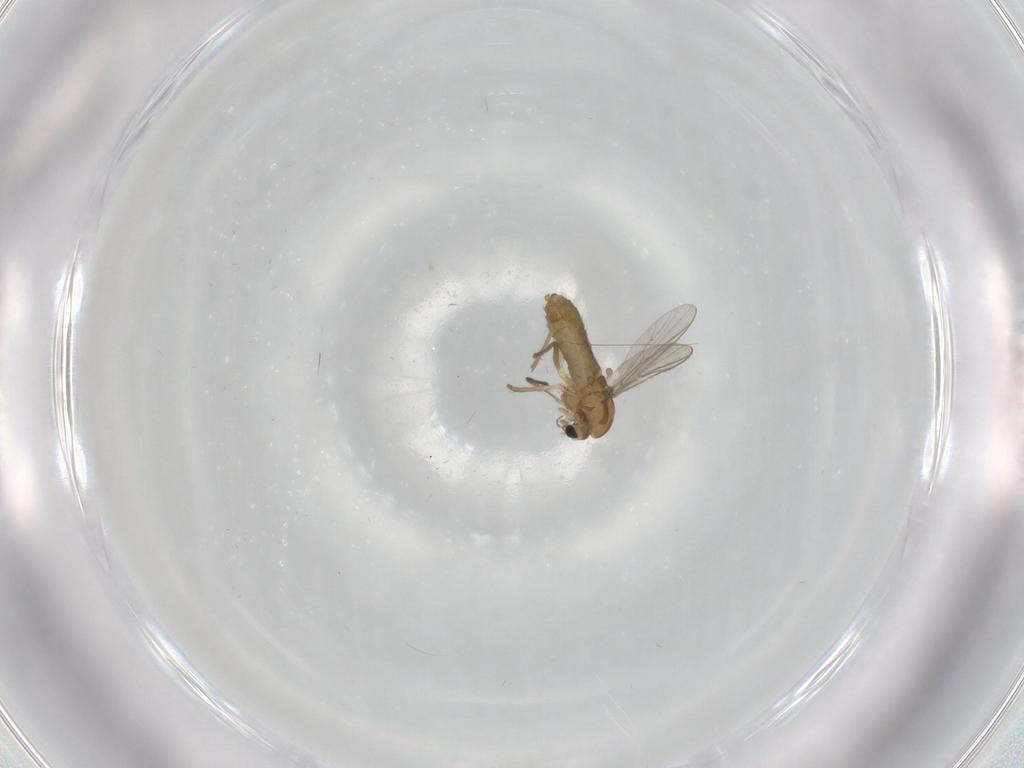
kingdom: Animalia
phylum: Arthropoda
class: Insecta
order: Diptera
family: Chironomidae
